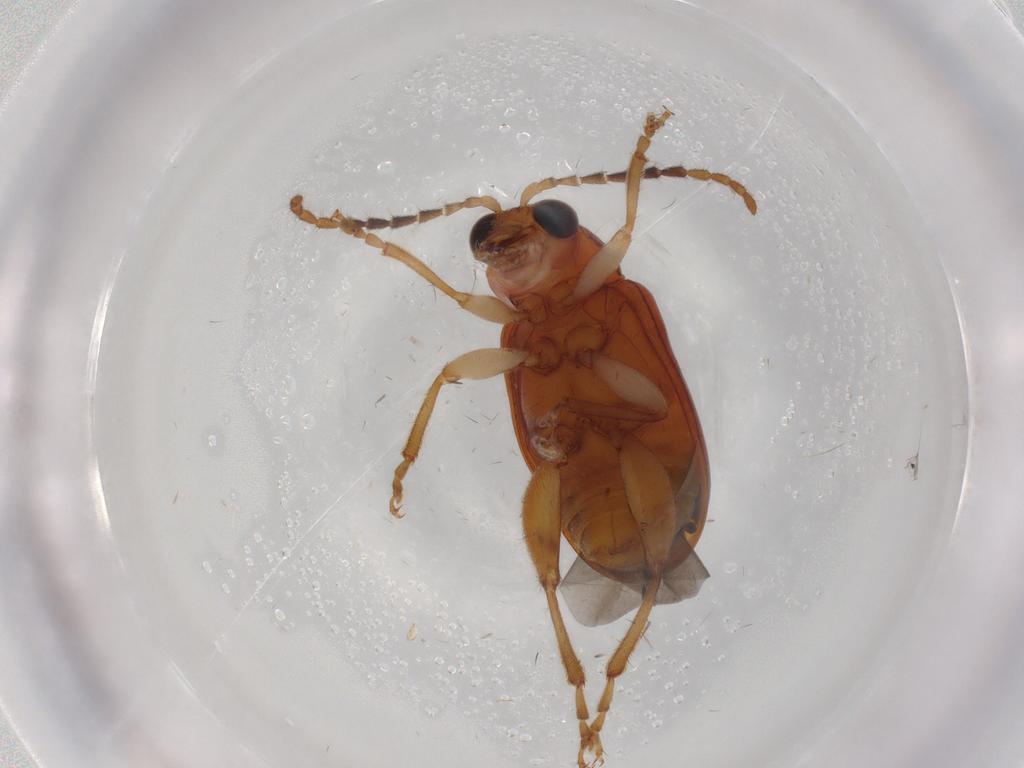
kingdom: Animalia
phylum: Arthropoda
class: Insecta
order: Coleoptera
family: Chrysomelidae
